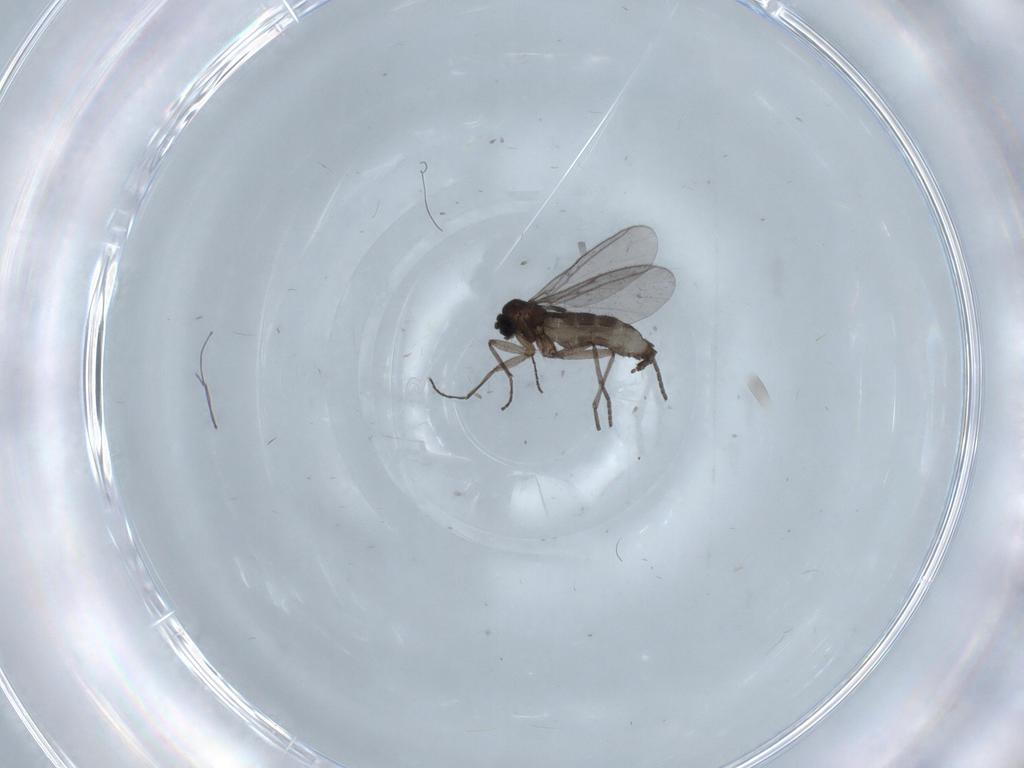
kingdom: Animalia
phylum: Arthropoda
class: Insecta
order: Diptera
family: Chironomidae
